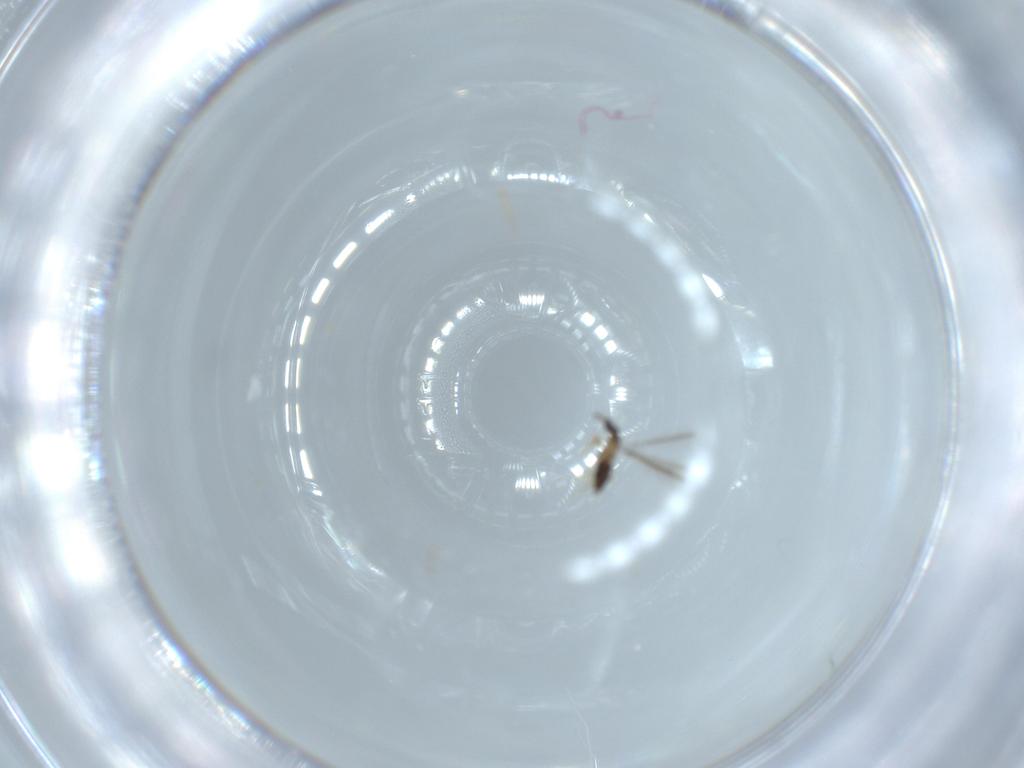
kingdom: Animalia
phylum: Arthropoda
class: Insecta
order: Hymenoptera
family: Mymaridae
